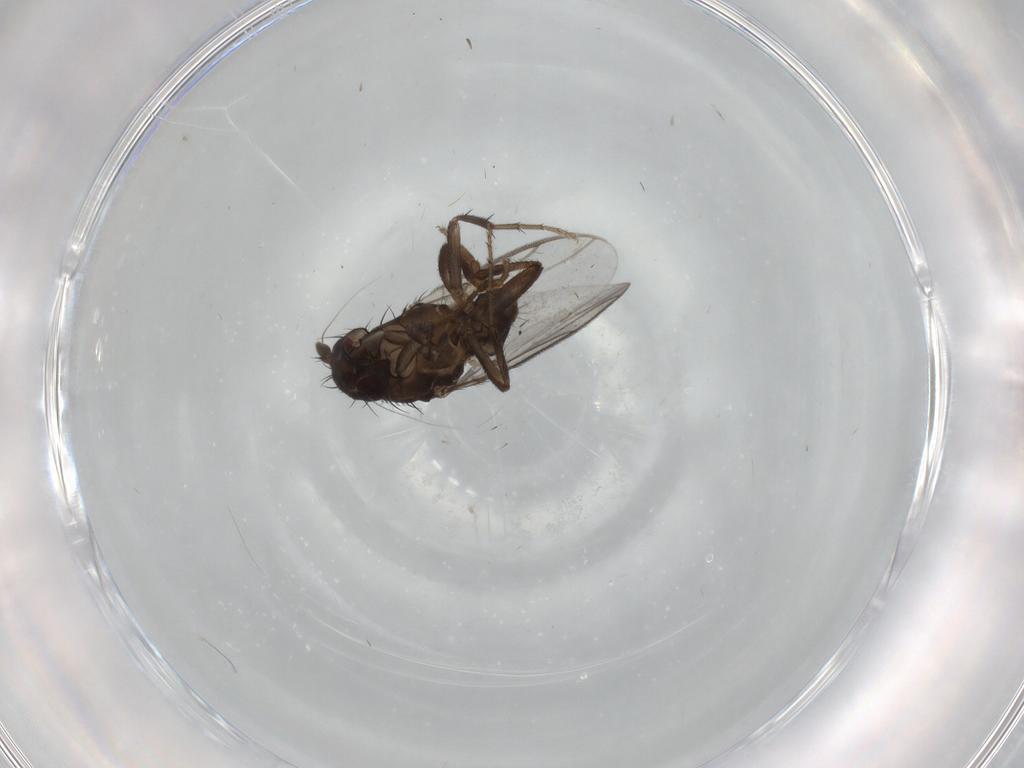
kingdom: Animalia
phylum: Arthropoda
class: Insecta
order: Diptera
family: Sphaeroceridae
